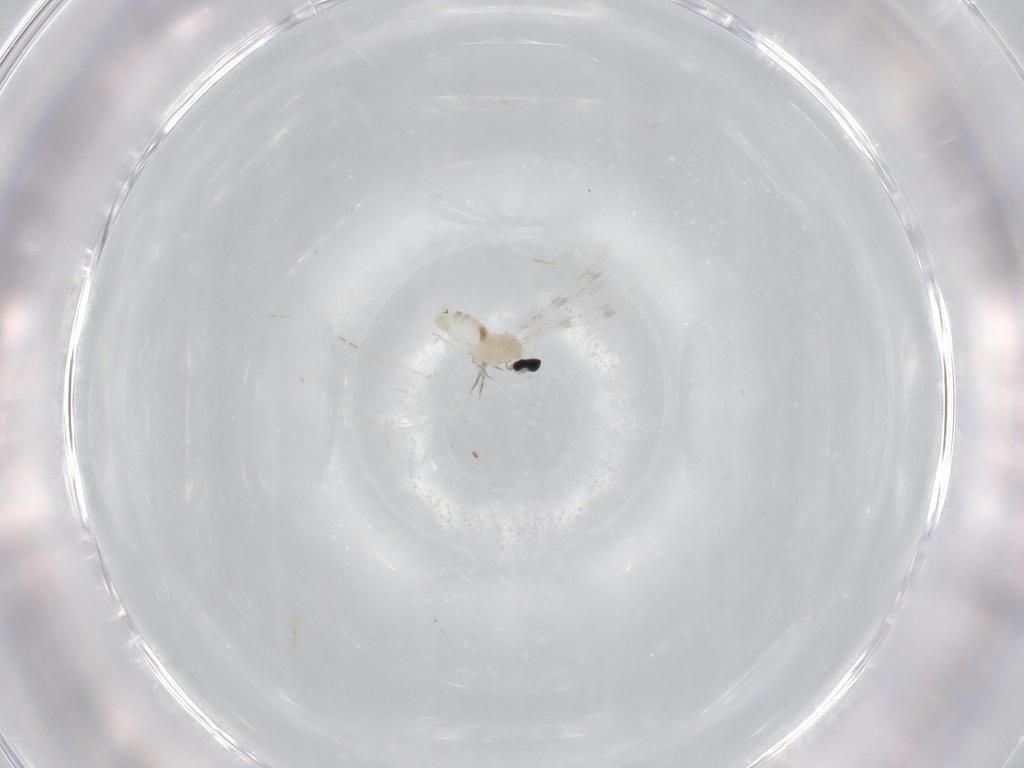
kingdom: Animalia
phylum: Arthropoda
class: Insecta
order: Diptera
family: Cecidomyiidae
